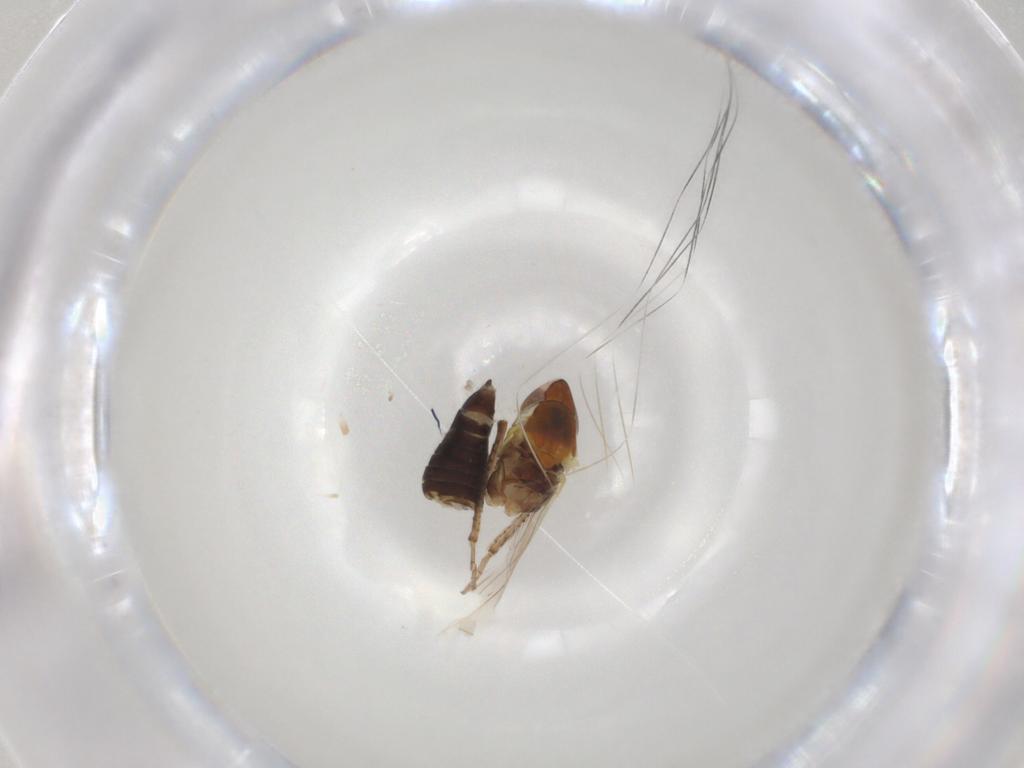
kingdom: Animalia
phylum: Arthropoda
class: Insecta
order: Hemiptera
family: Cicadellidae
